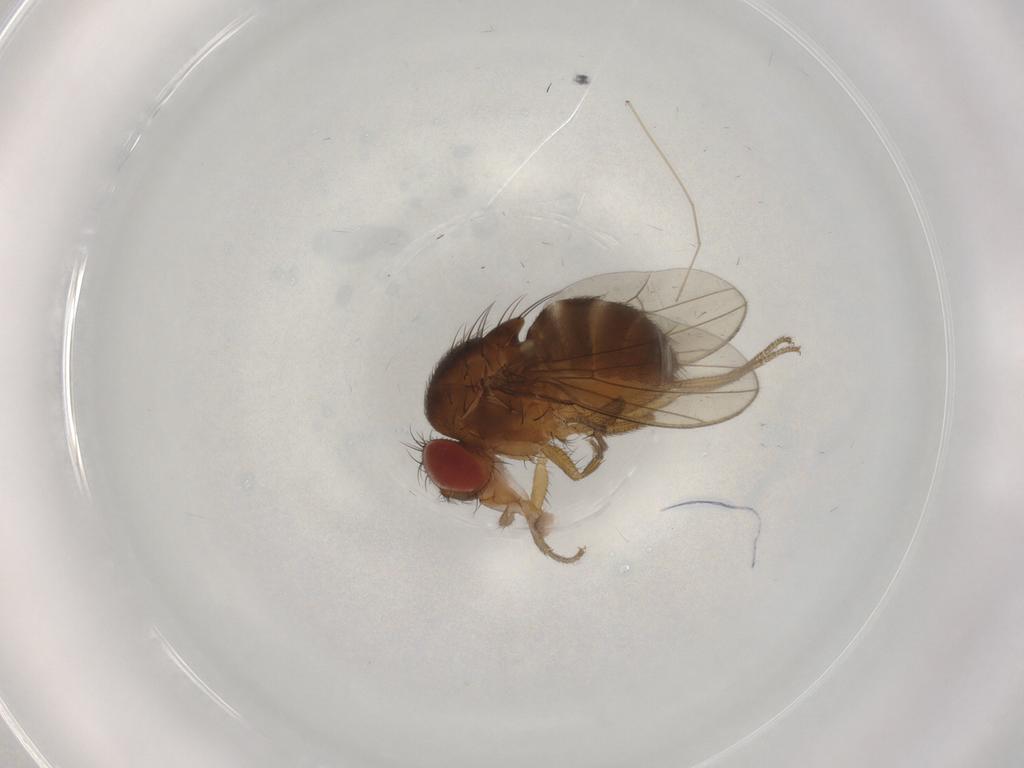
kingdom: Animalia
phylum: Arthropoda
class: Insecta
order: Diptera
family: Drosophilidae
